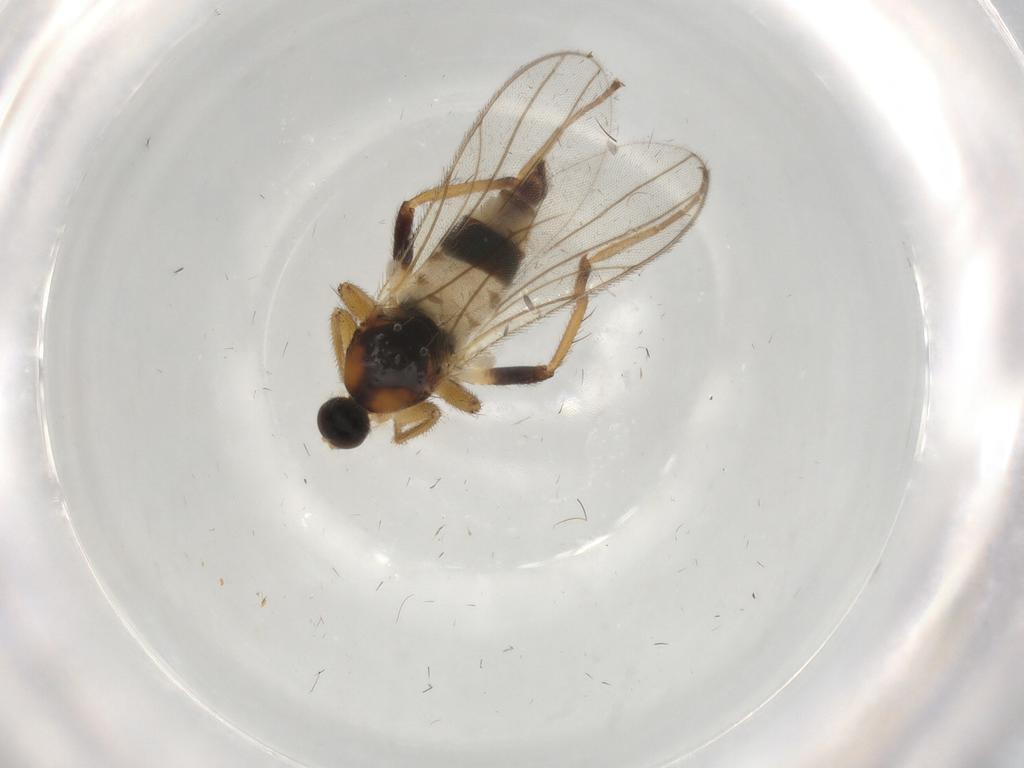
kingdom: Animalia
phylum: Arthropoda
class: Insecta
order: Diptera
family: Hybotidae
